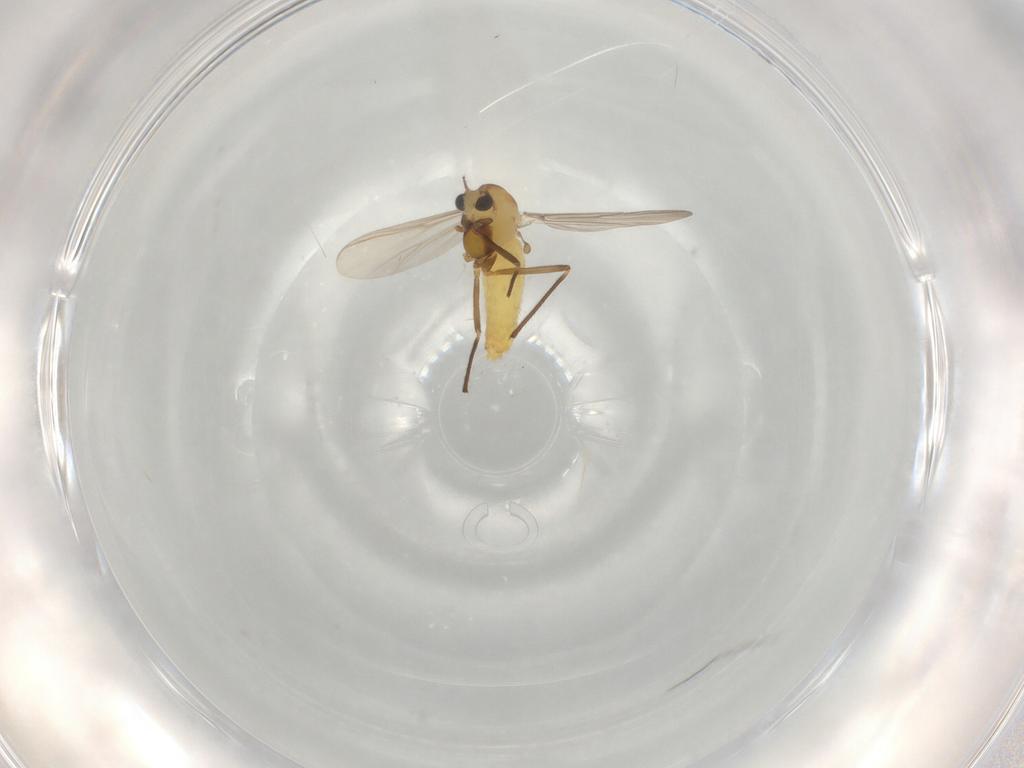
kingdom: Animalia
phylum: Arthropoda
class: Insecta
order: Diptera
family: Chironomidae
